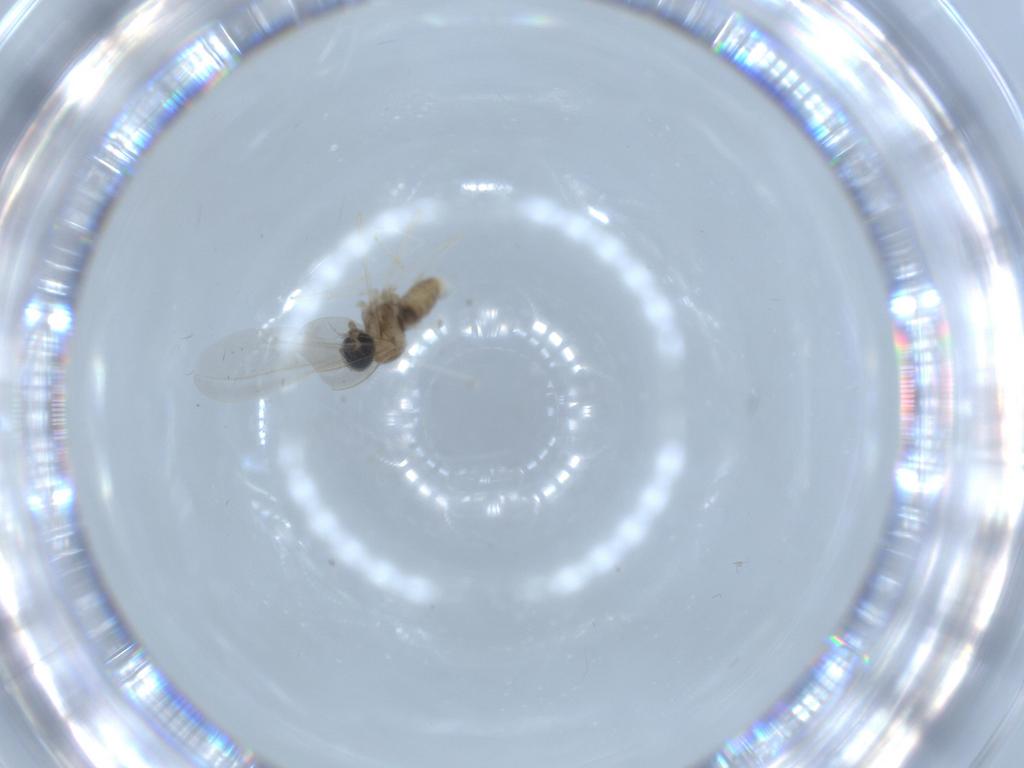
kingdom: Animalia
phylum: Arthropoda
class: Insecta
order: Diptera
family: Cecidomyiidae
